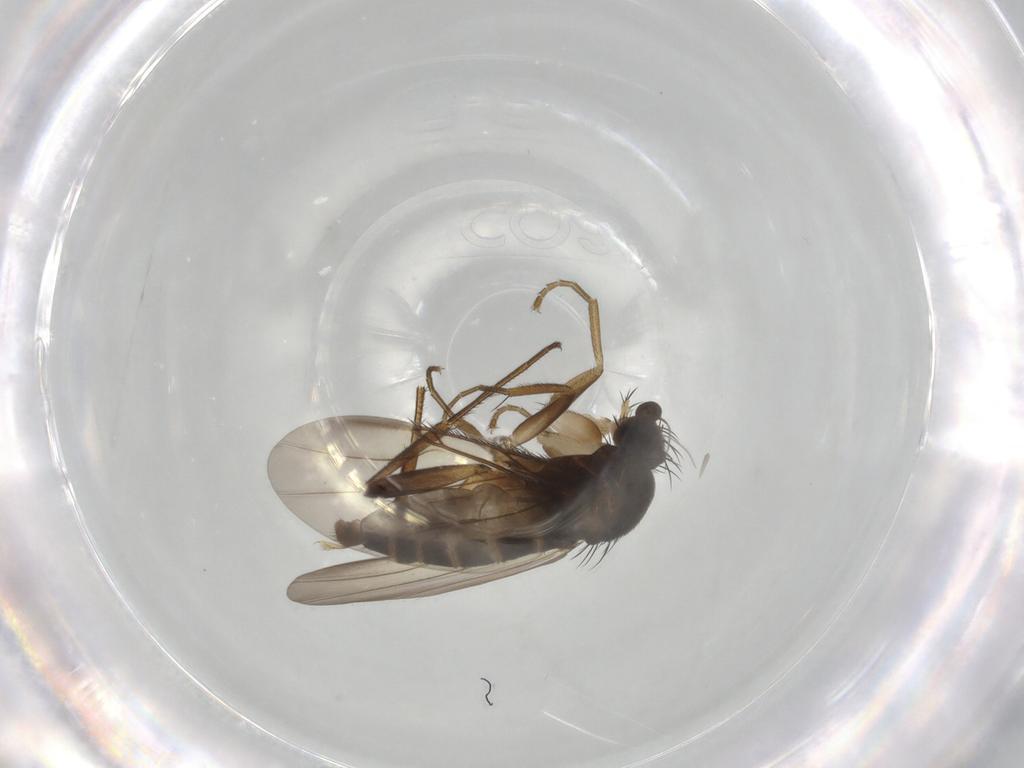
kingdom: Animalia
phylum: Arthropoda
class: Insecta
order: Diptera
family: Phoridae
